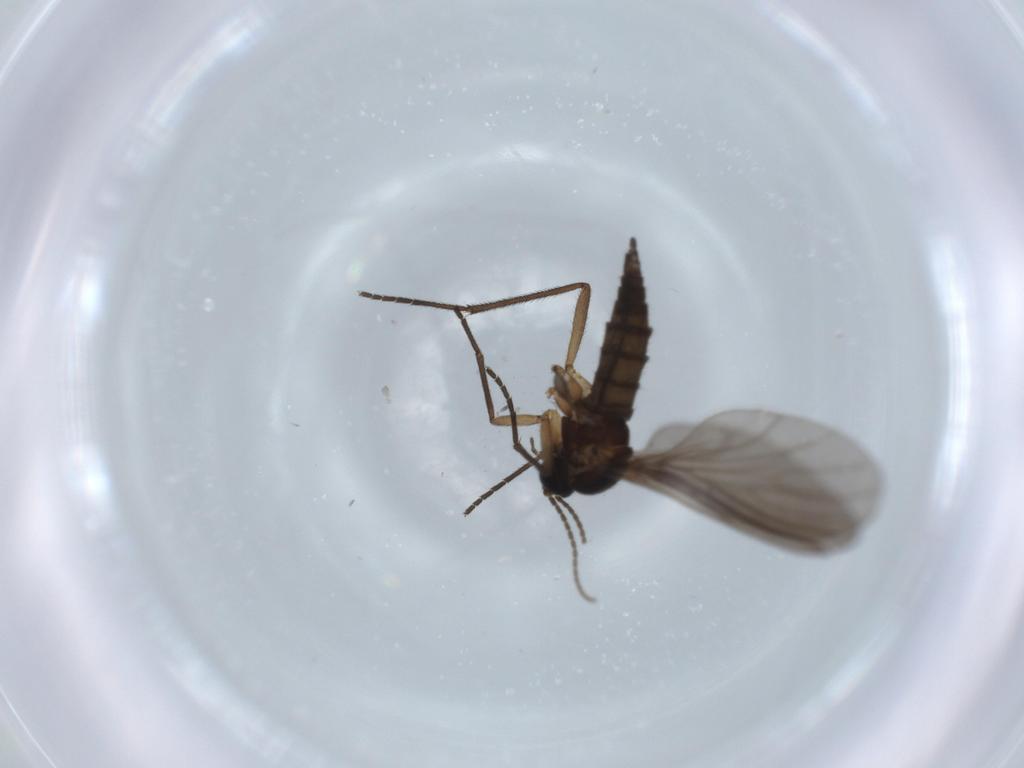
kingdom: Animalia
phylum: Arthropoda
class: Insecta
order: Diptera
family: Sciaridae
